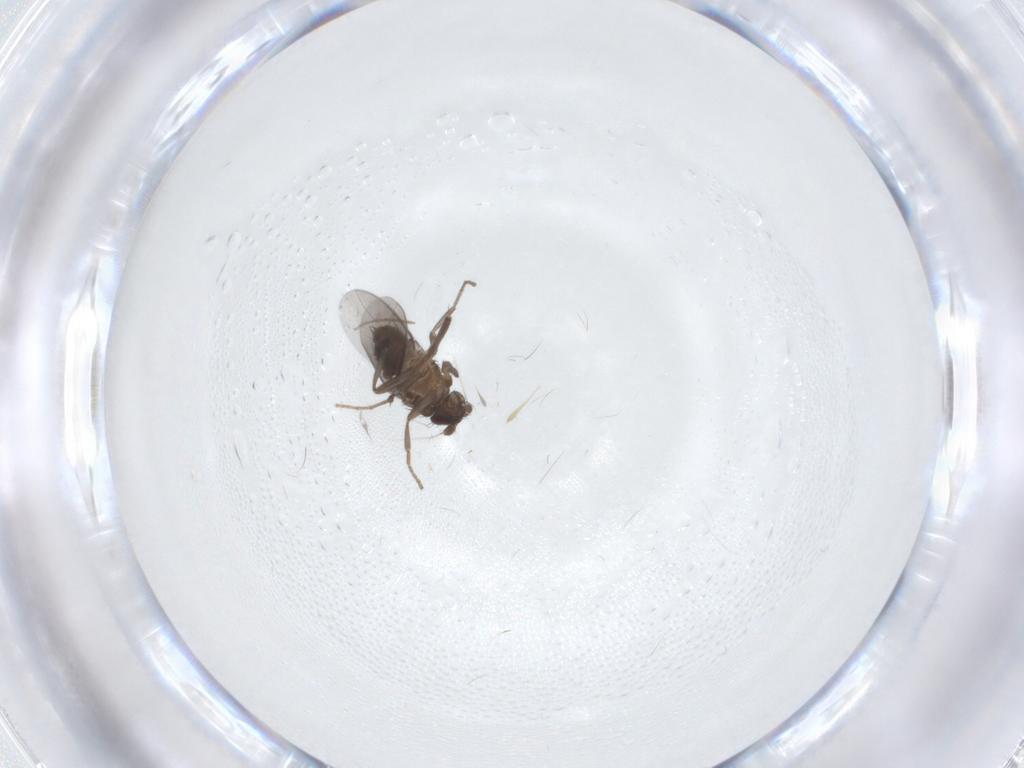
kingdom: Animalia
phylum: Arthropoda
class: Insecta
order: Diptera
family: Sphaeroceridae
